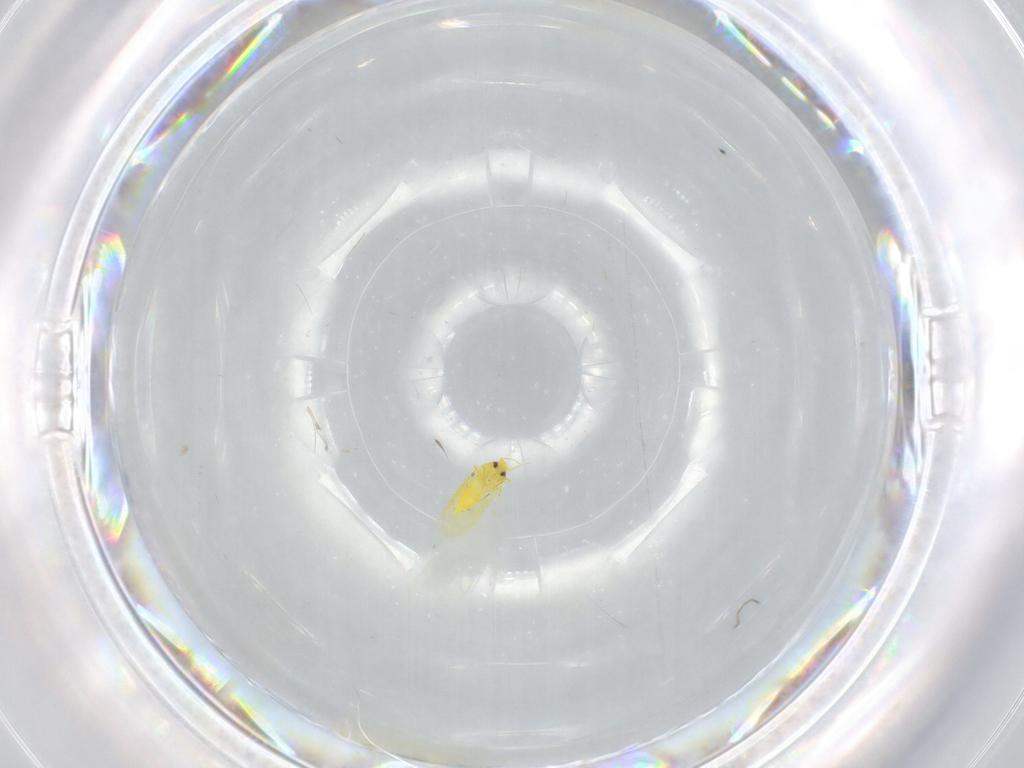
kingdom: Animalia
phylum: Arthropoda
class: Insecta
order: Hemiptera
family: Aleyrodidae
